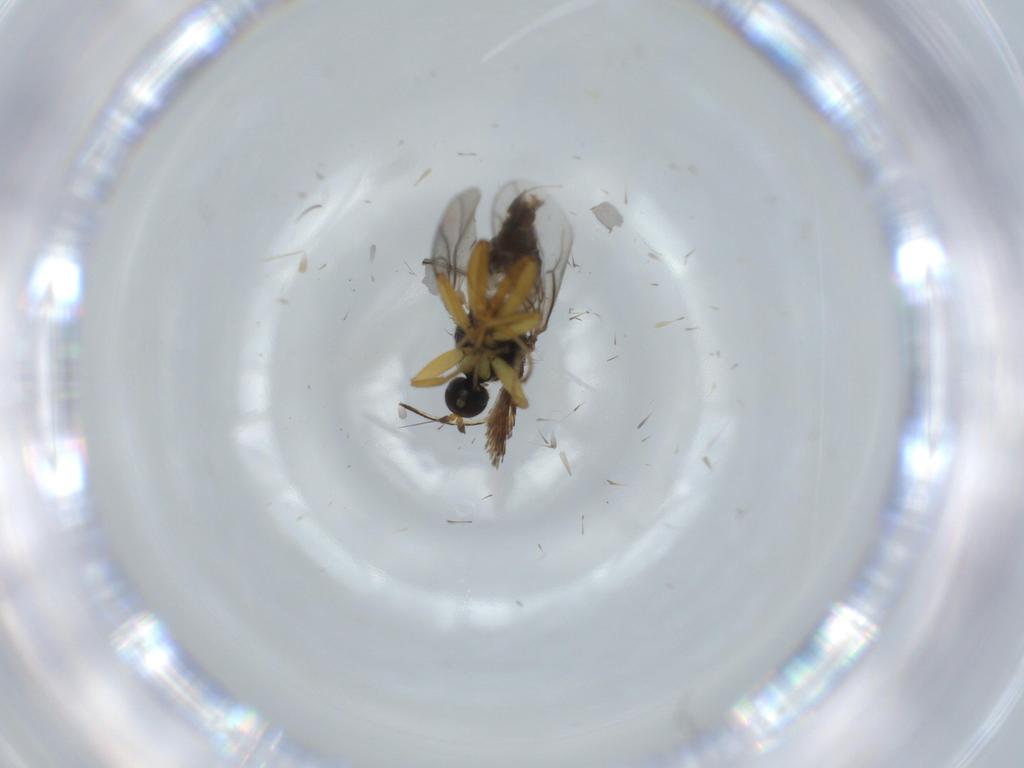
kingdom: Animalia
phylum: Arthropoda
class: Insecta
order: Diptera
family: Hybotidae
